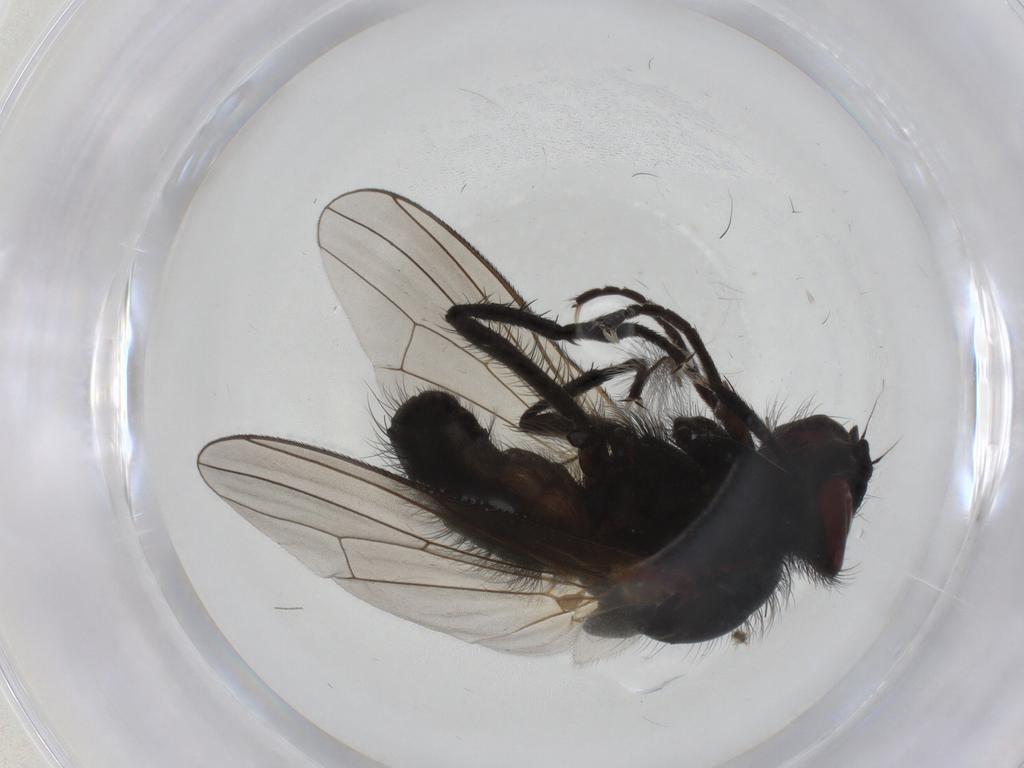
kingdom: Animalia
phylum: Arthropoda
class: Insecta
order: Diptera
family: Anthomyiidae
